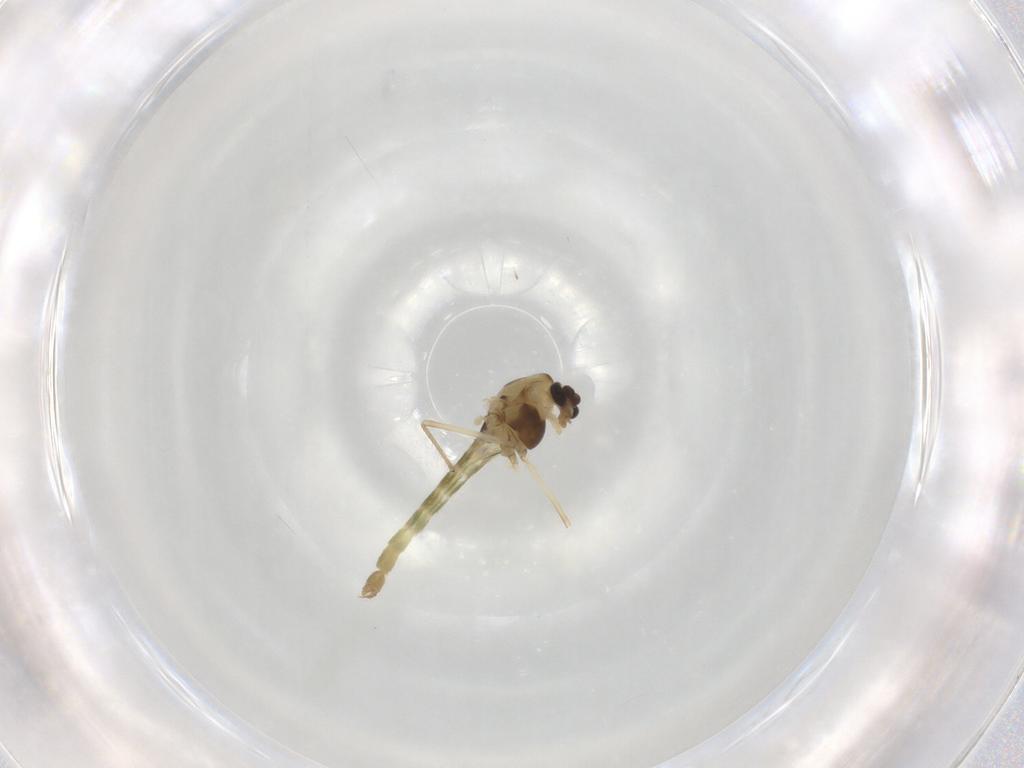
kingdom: Animalia
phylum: Arthropoda
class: Insecta
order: Diptera
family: Chironomidae
